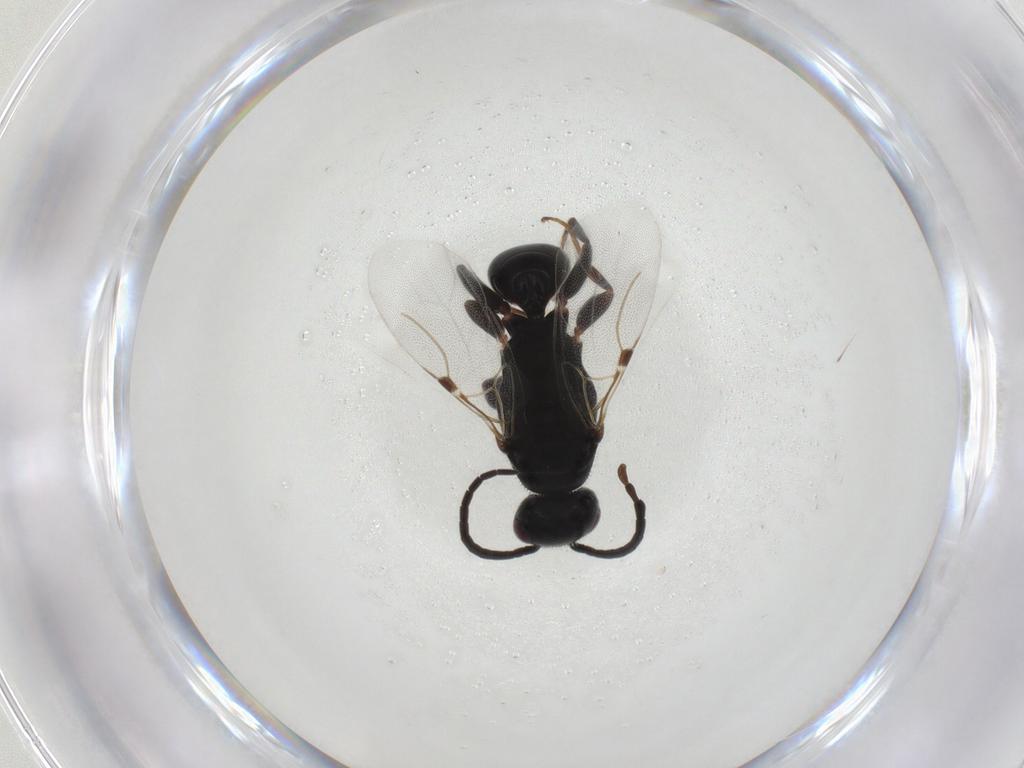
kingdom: Animalia
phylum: Arthropoda
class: Insecta
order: Hymenoptera
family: Bethylidae
